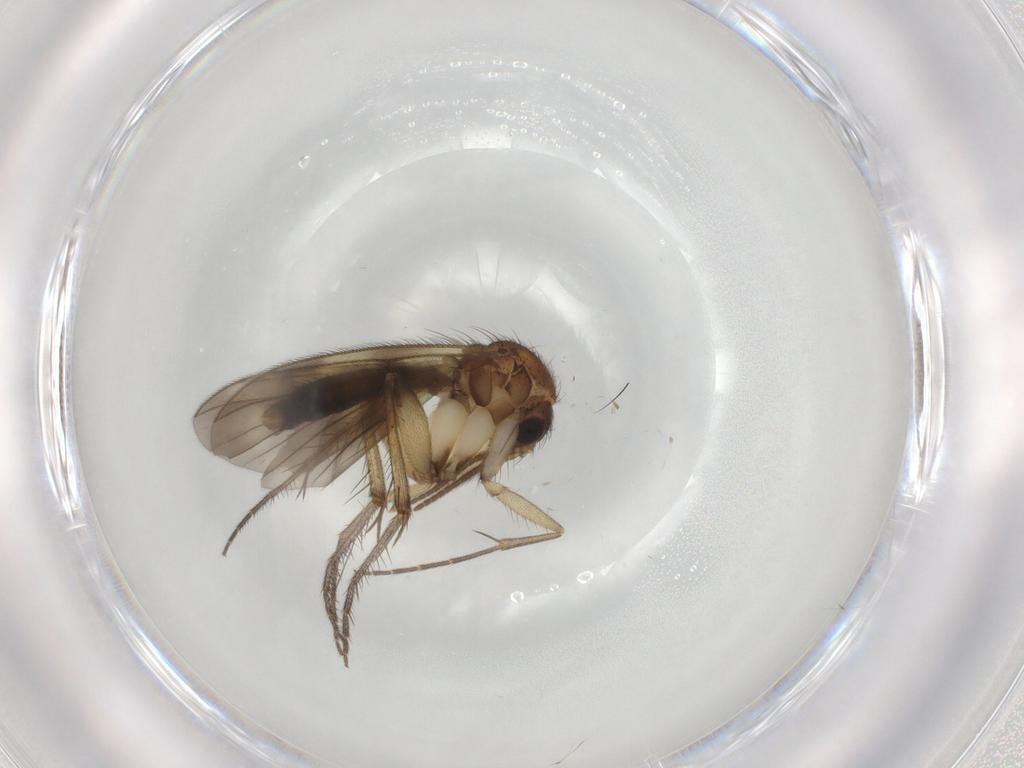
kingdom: Animalia
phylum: Arthropoda
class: Insecta
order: Diptera
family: Mycetophilidae
